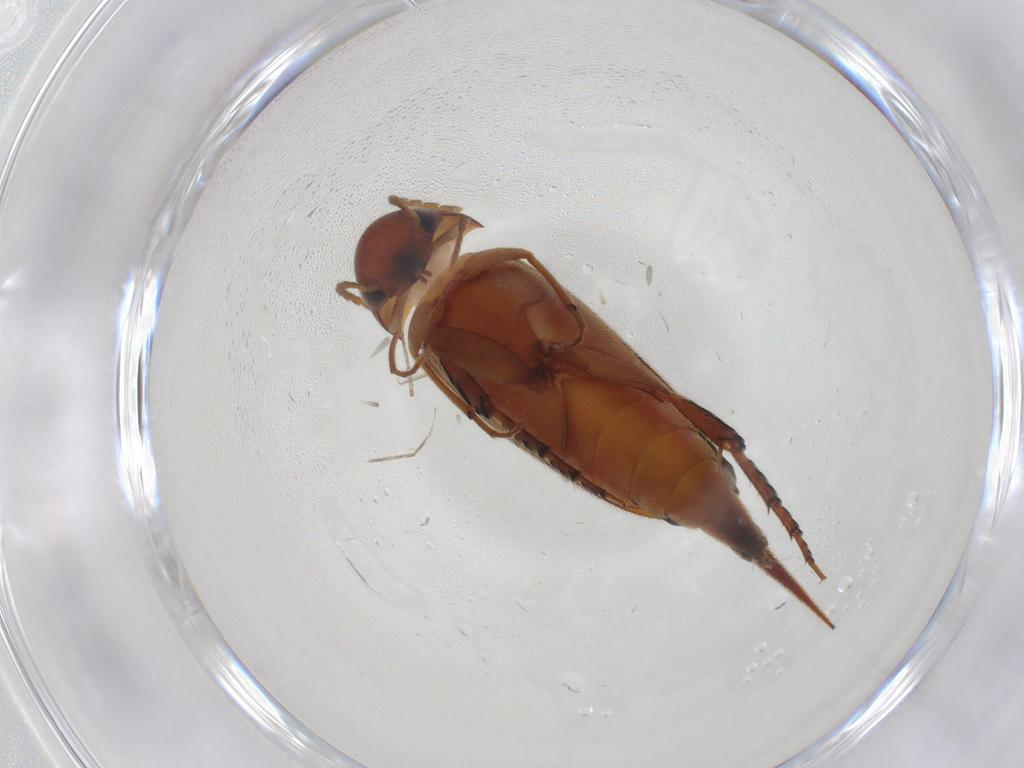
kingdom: Animalia
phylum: Arthropoda
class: Insecta
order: Coleoptera
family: Mordellidae
